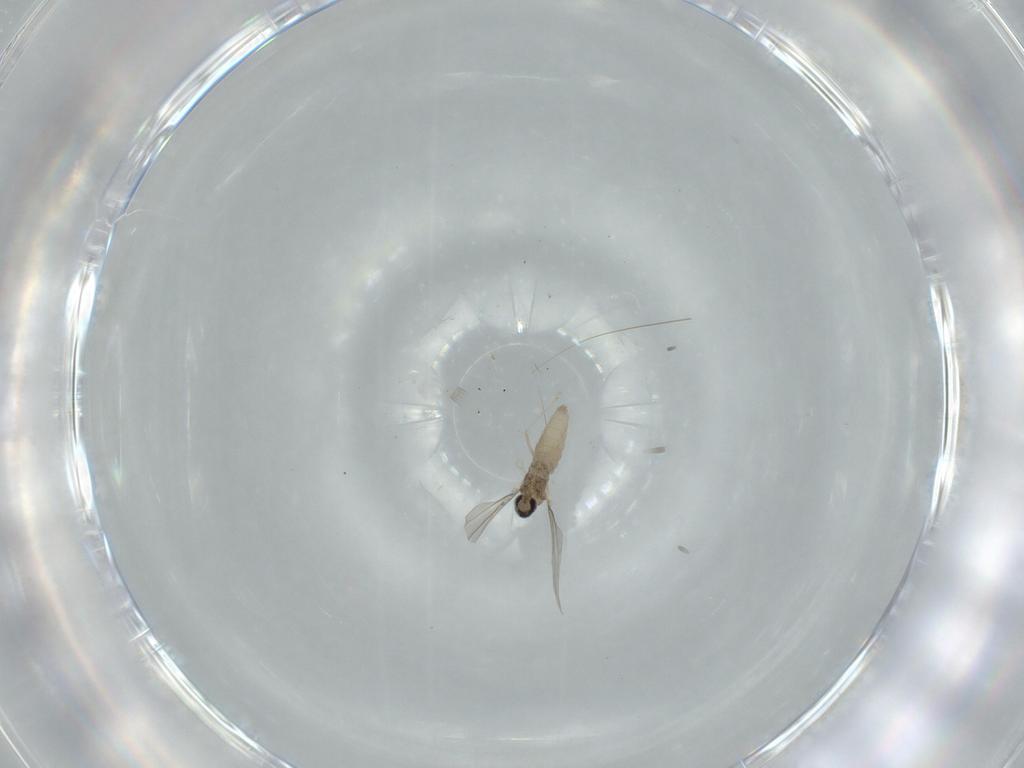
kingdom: Animalia
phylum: Arthropoda
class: Insecta
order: Diptera
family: Cecidomyiidae
